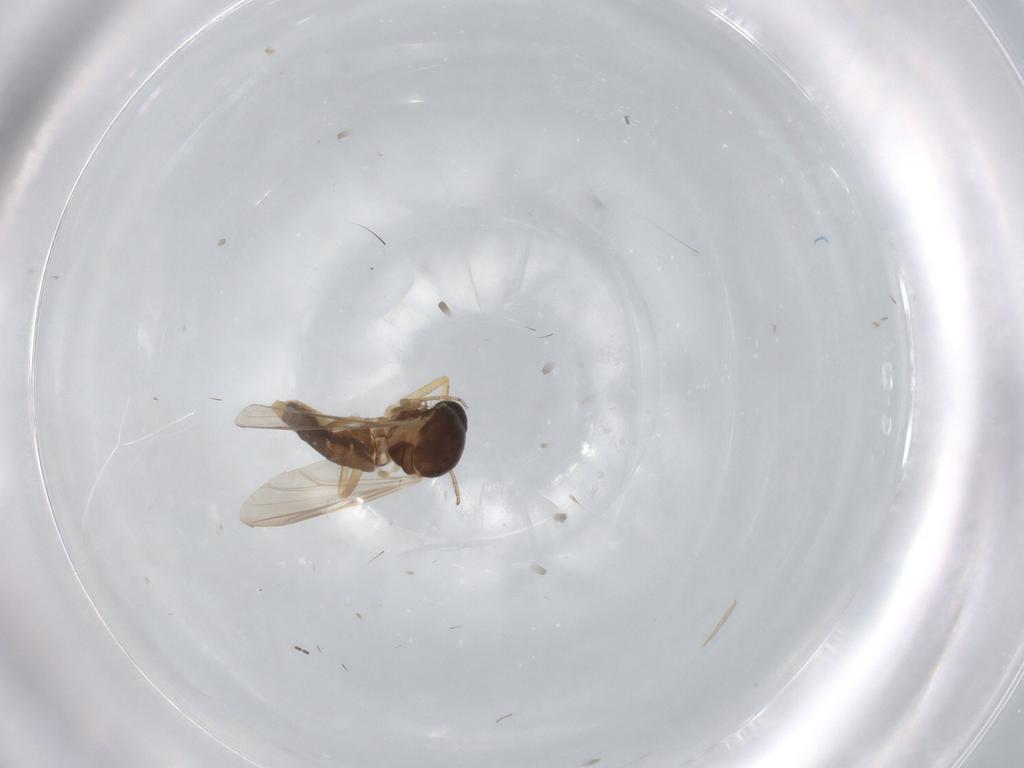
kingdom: Animalia
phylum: Arthropoda
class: Insecta
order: Diptera
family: Ceratopogonidae
